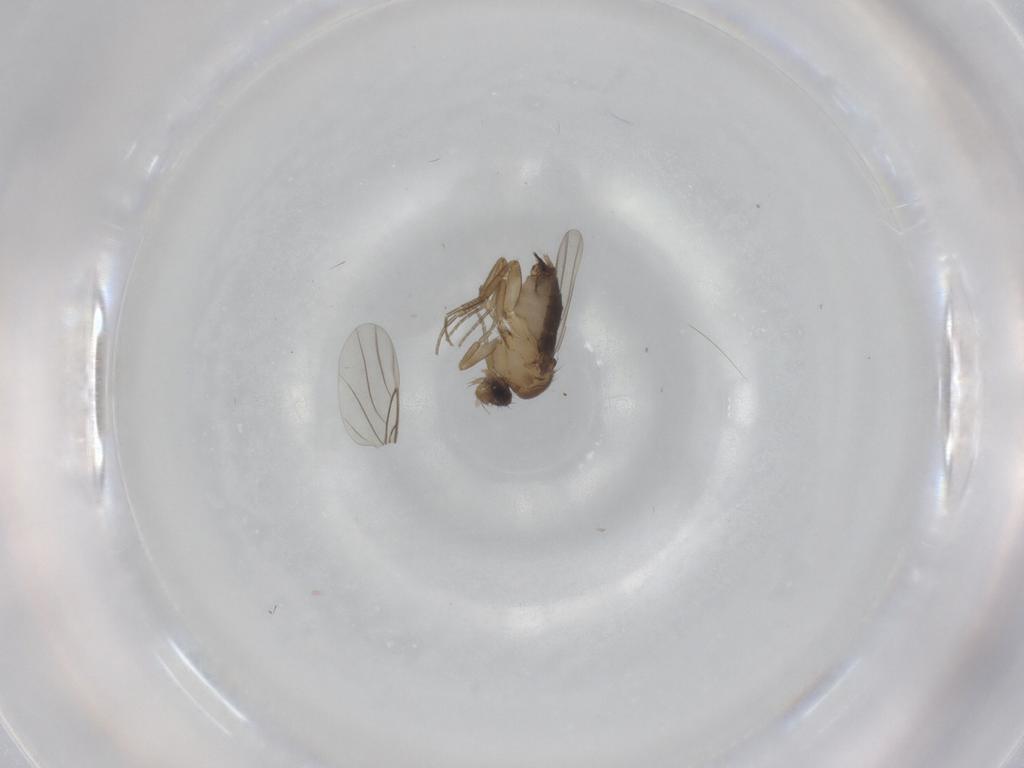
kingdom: Animalia
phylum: Arthropoda
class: Insecta
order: Diptera
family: Phoridae
